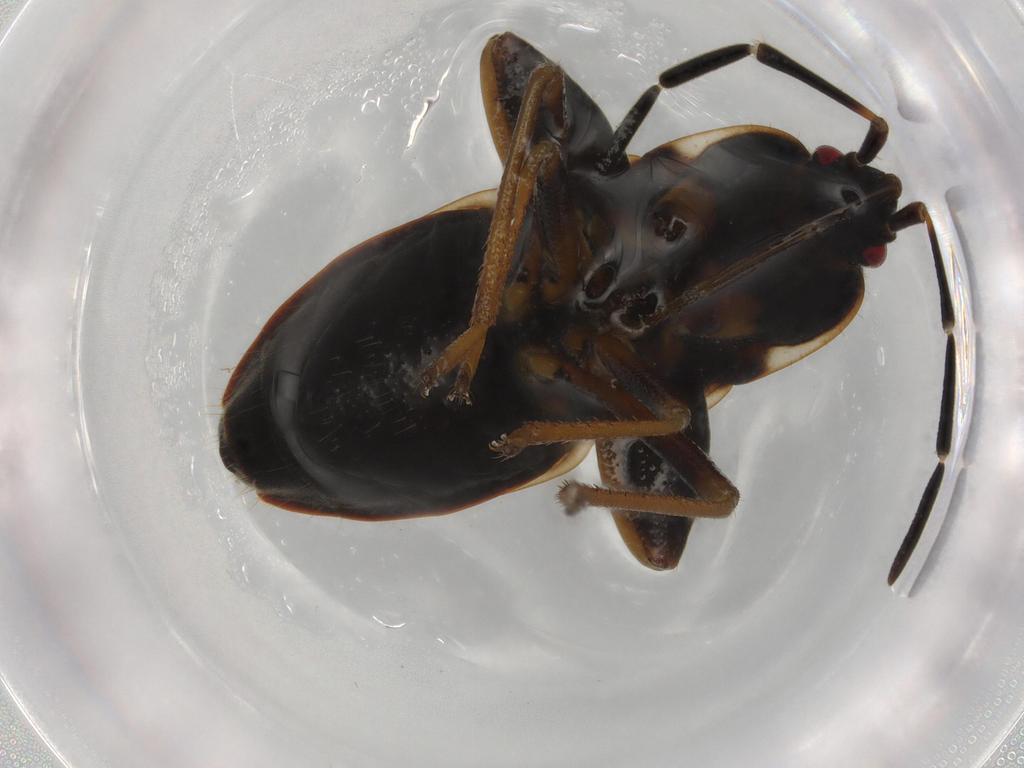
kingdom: Animalia
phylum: Arthropoda
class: Insecta
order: Hemiptera
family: Rhyparochromidae
